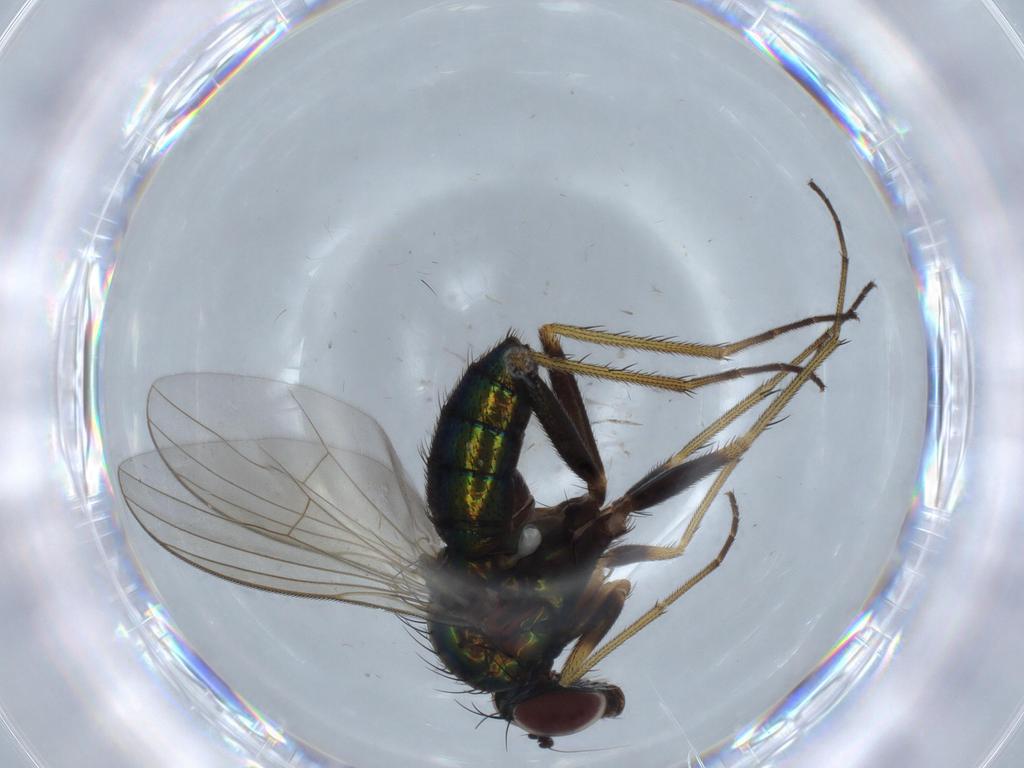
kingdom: Animalia
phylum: Arthropoda
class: Insecta
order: Diptera
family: Dolichopodidae
